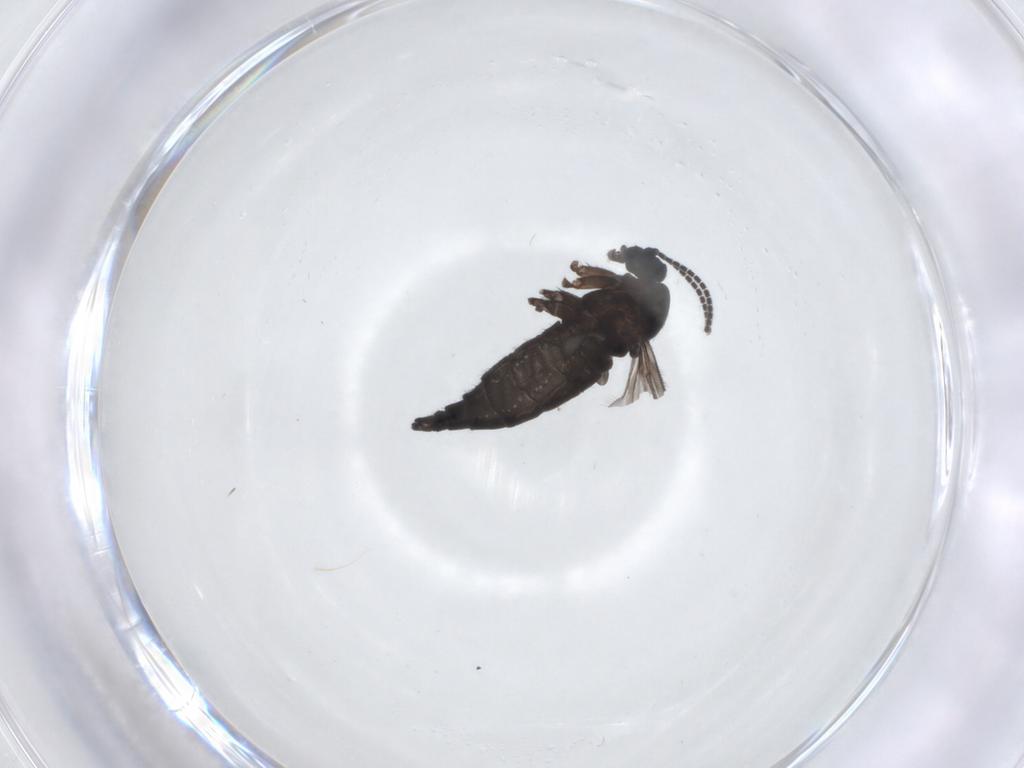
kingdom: Animalia
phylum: Arthropoda
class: Insecta
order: Diptera
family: Sciaridae
